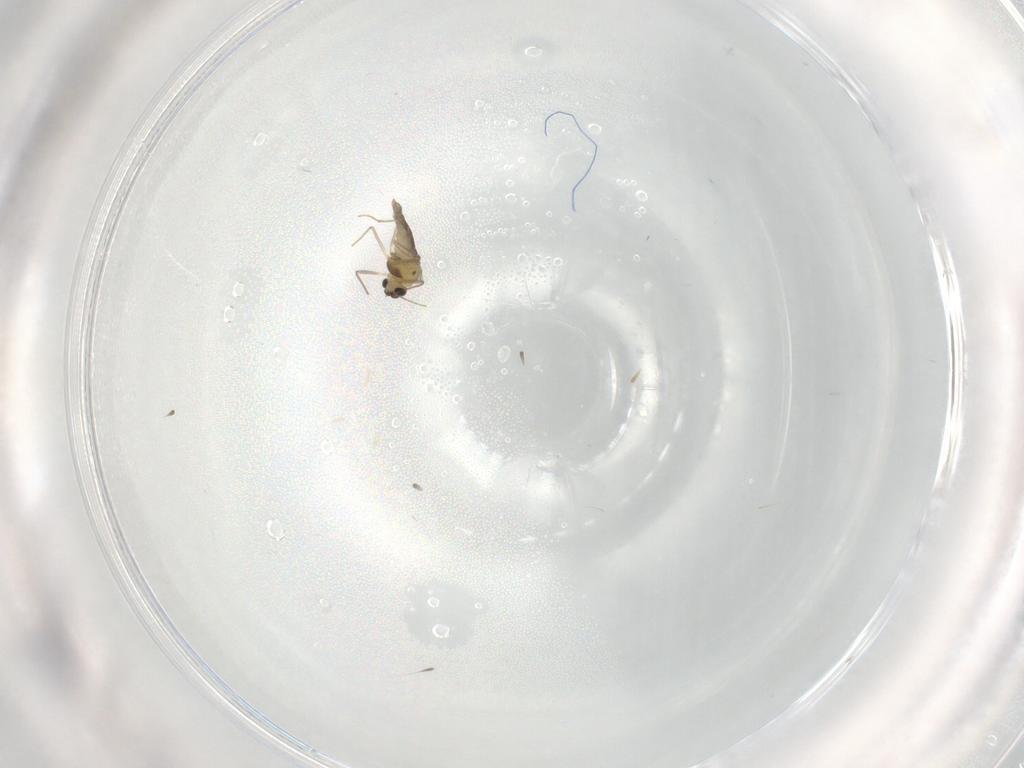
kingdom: Animalia
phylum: Arthropoda
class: Insecta
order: Diptera
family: Chironomidae
